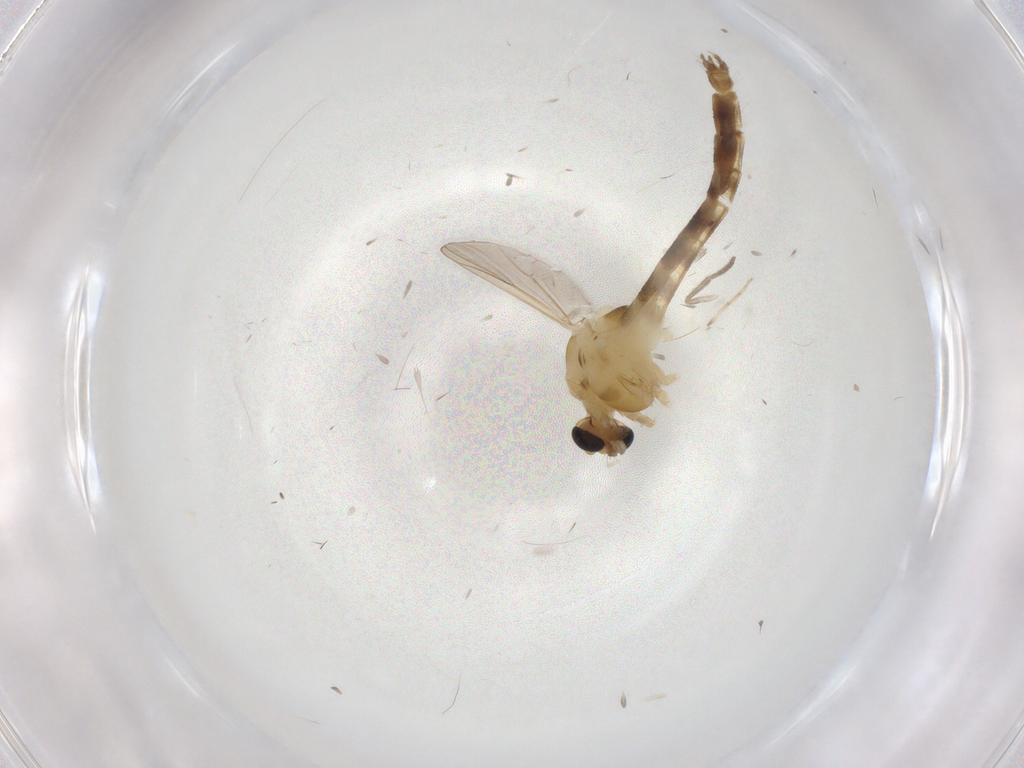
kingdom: Animalia
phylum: Arthropoda
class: Insecta
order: Diptera
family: Chironomidae
